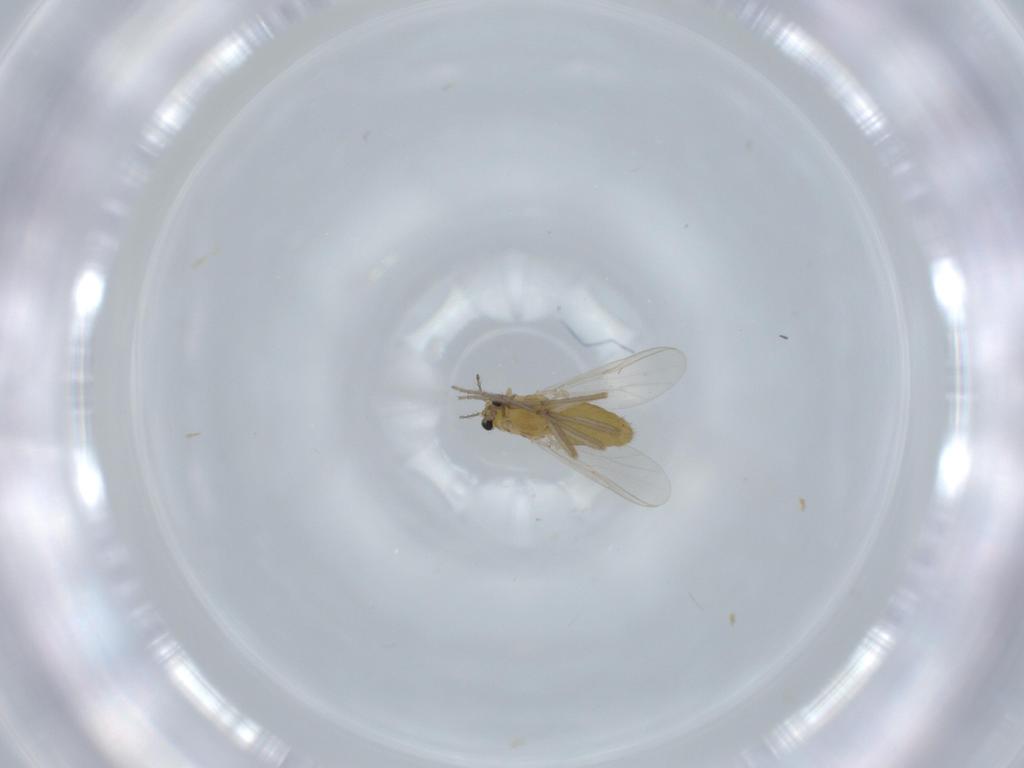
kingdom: Animalia
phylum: Arthropoda
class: Insecta
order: Diptera
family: Chironomidae
